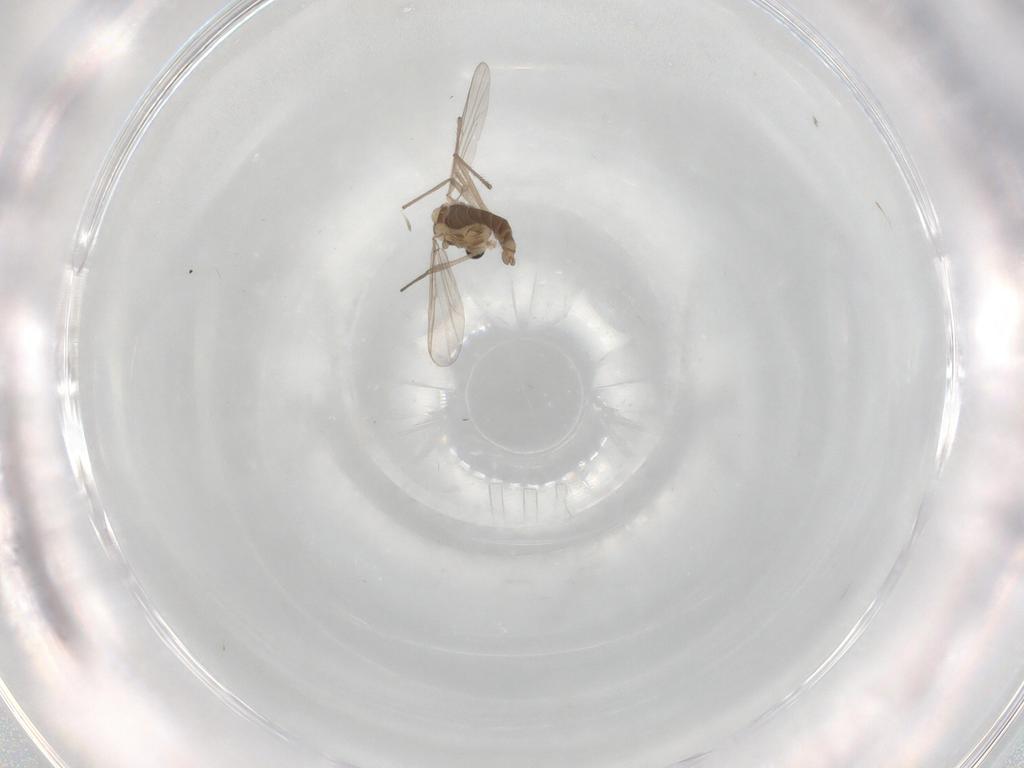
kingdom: Animalia
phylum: Arthropoda
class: Insecta
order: Diptera
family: Chironomidae
